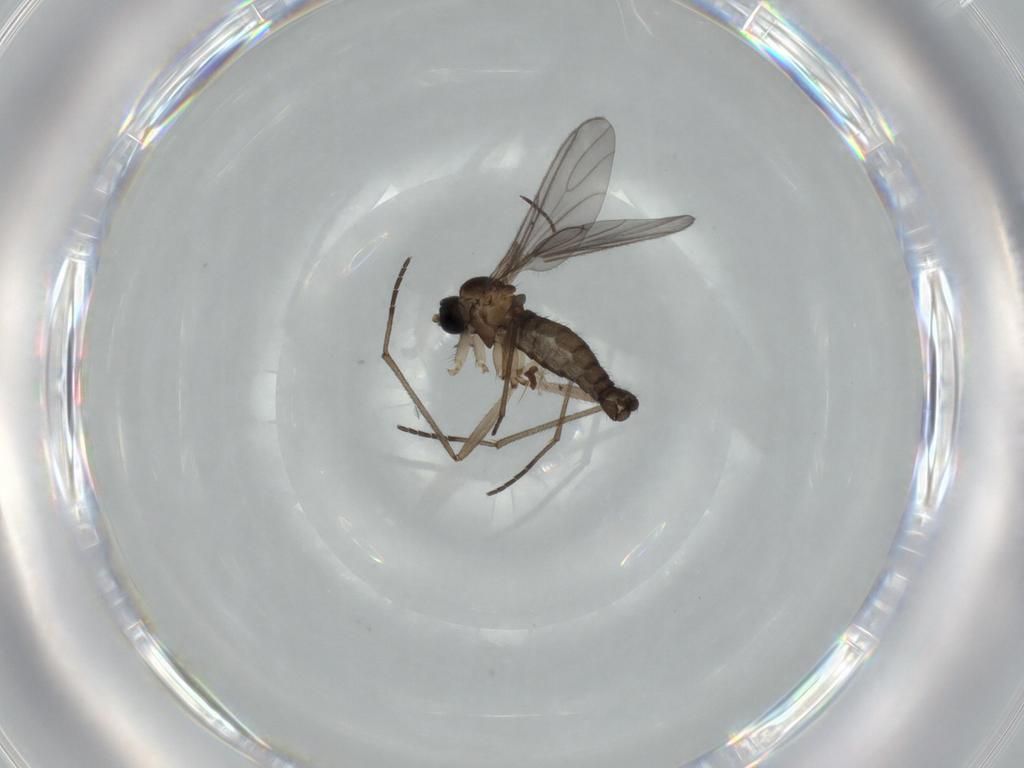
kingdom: Animalia
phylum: Arthropoda
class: Insecta
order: Diptera
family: Sciaridae
